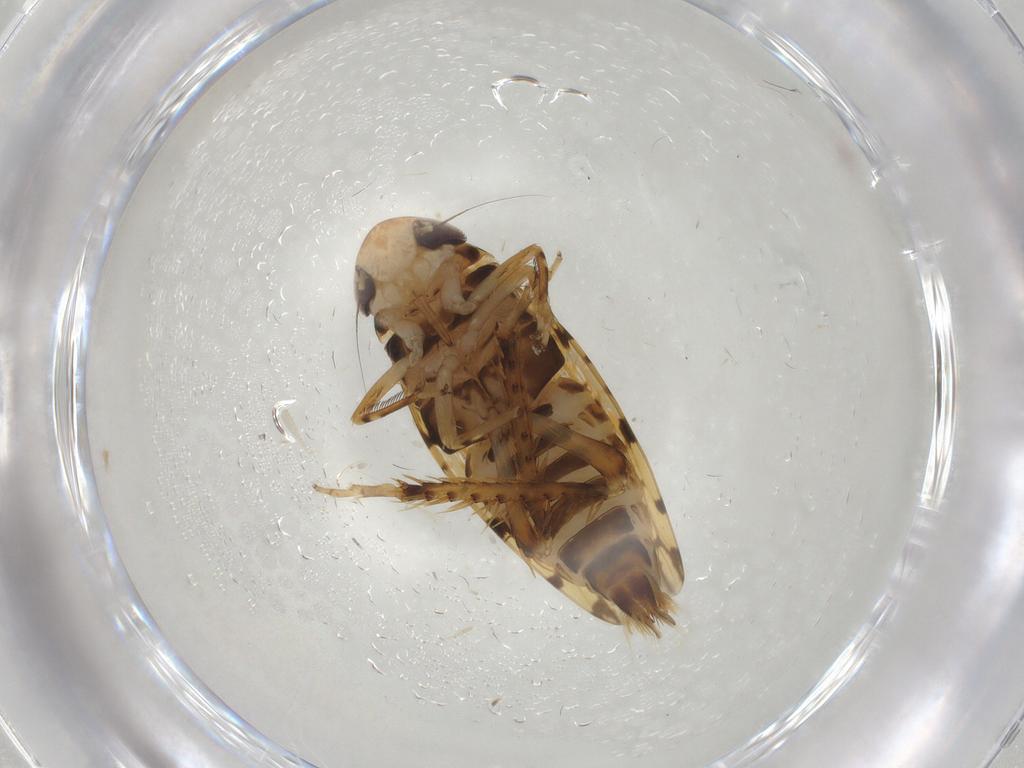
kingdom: Animalia
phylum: Arthropoda
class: Insecta
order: Hemiptera
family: Cicadellidae
